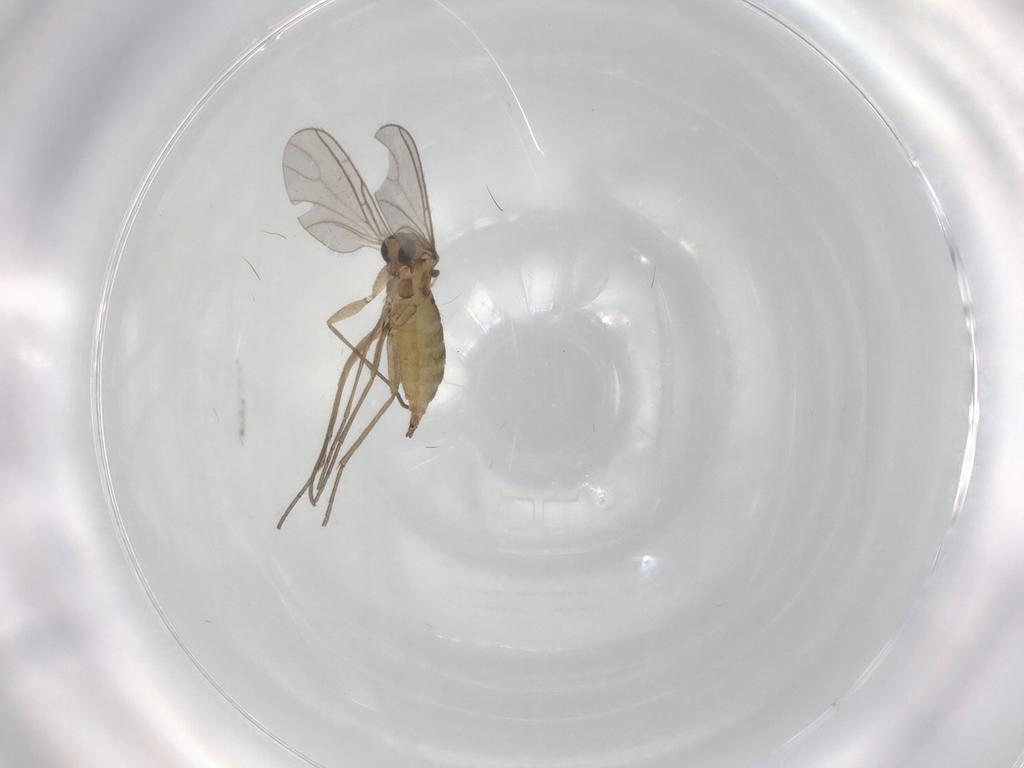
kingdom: Animalia
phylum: Arthropoda
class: Insecta
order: Diptera
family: Sciaridae
